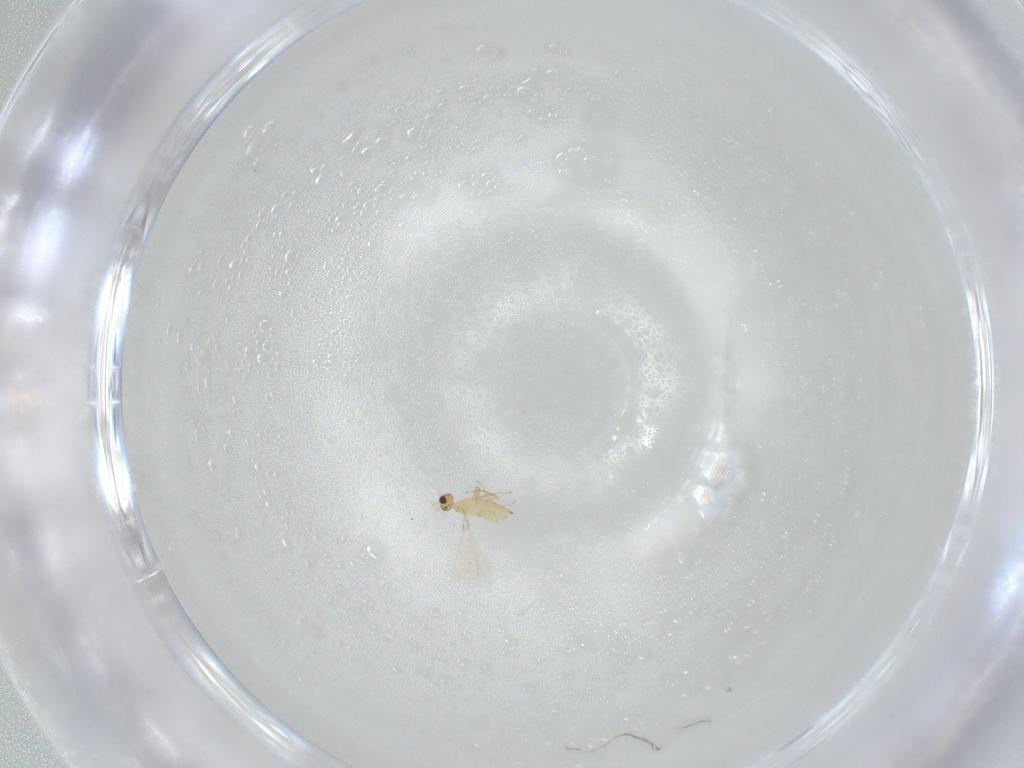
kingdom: Animalia
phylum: Arthropoda
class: Insecta
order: Hymenoptera
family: Mymaridae
